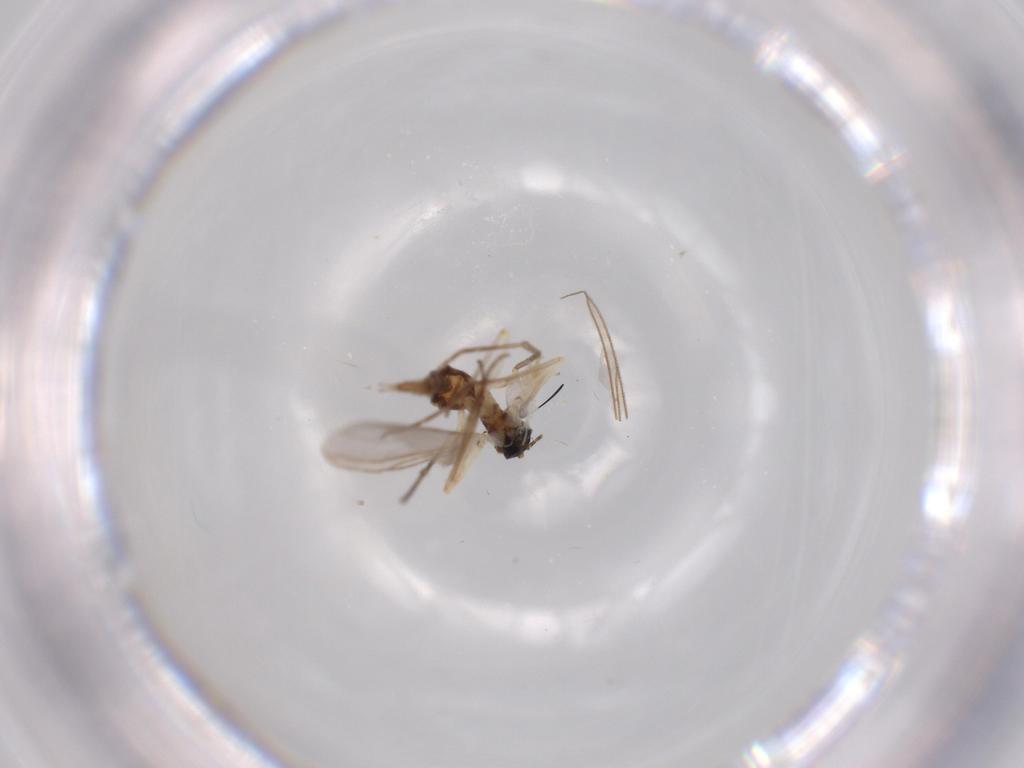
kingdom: Animalia
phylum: Arthropoda
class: Insecta
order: Diptera
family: Sciaridae
